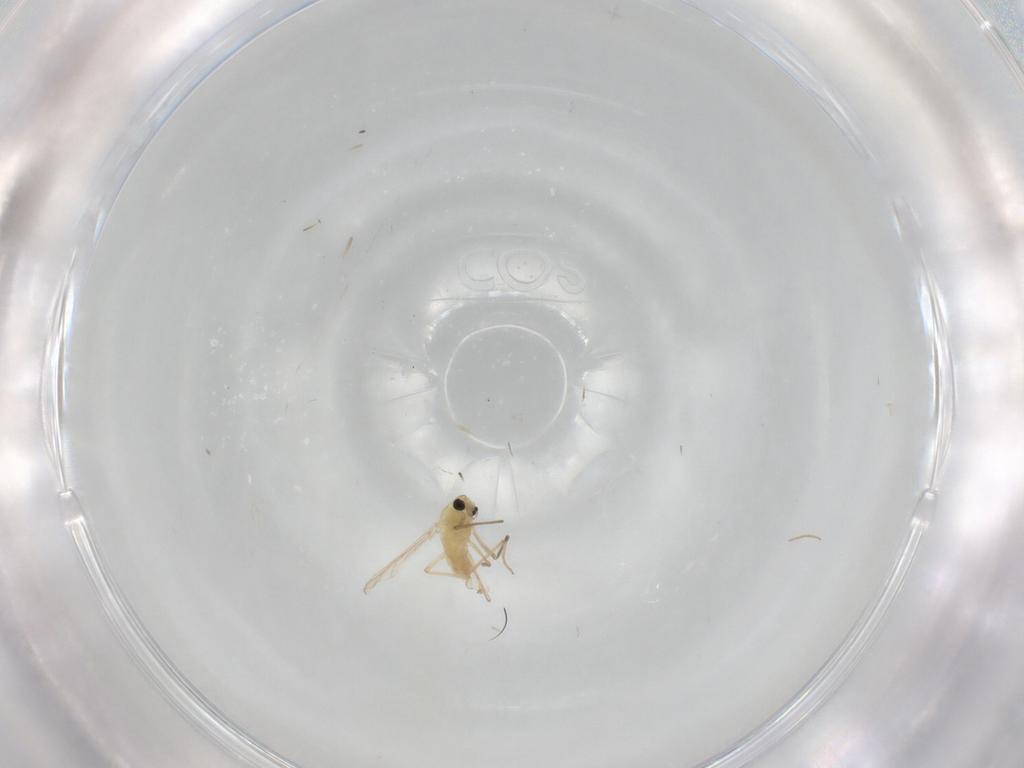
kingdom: Animalia
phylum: Arthropoda
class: Insecta
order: Diptera
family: Chironomidae
